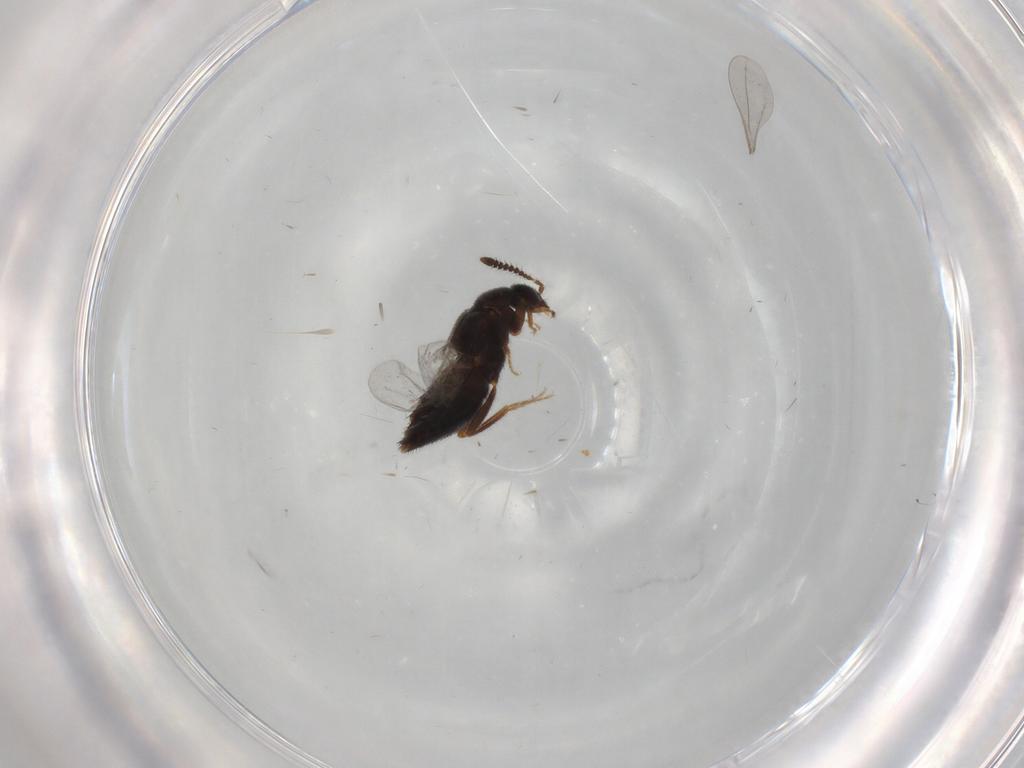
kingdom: Animalia
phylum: Arthropoda
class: Insecta
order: Coleoptera
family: Staphylinidae
